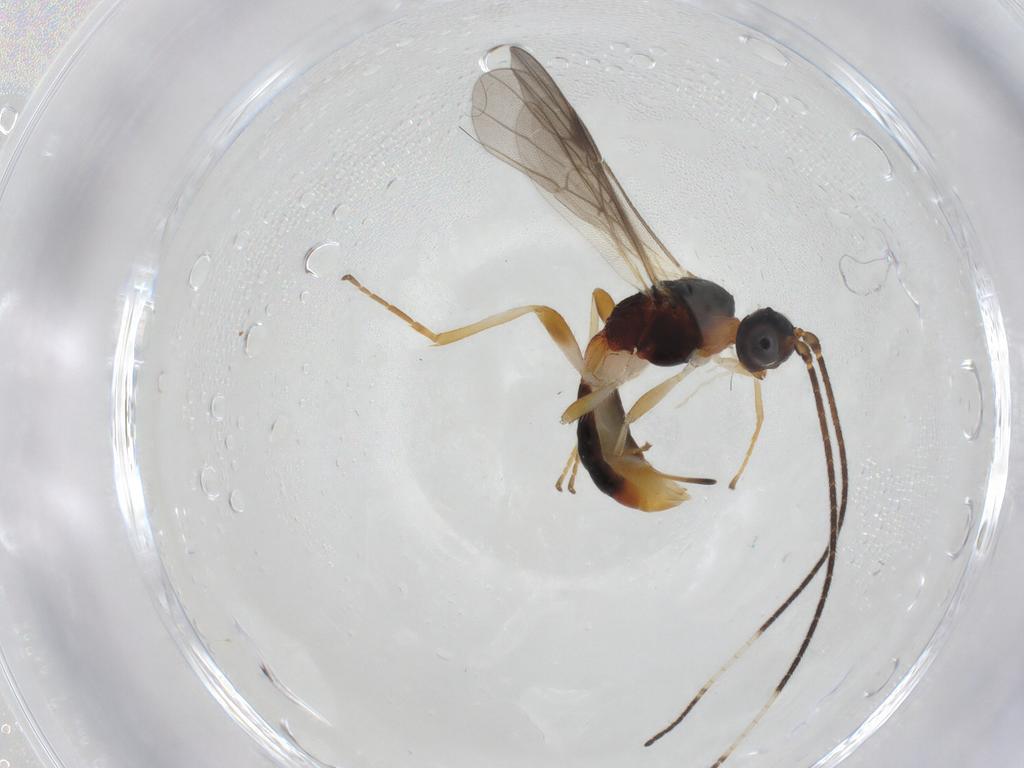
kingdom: Animalia
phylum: Arthropoda
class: Insecta
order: Hymenoptera
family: Braconidae
